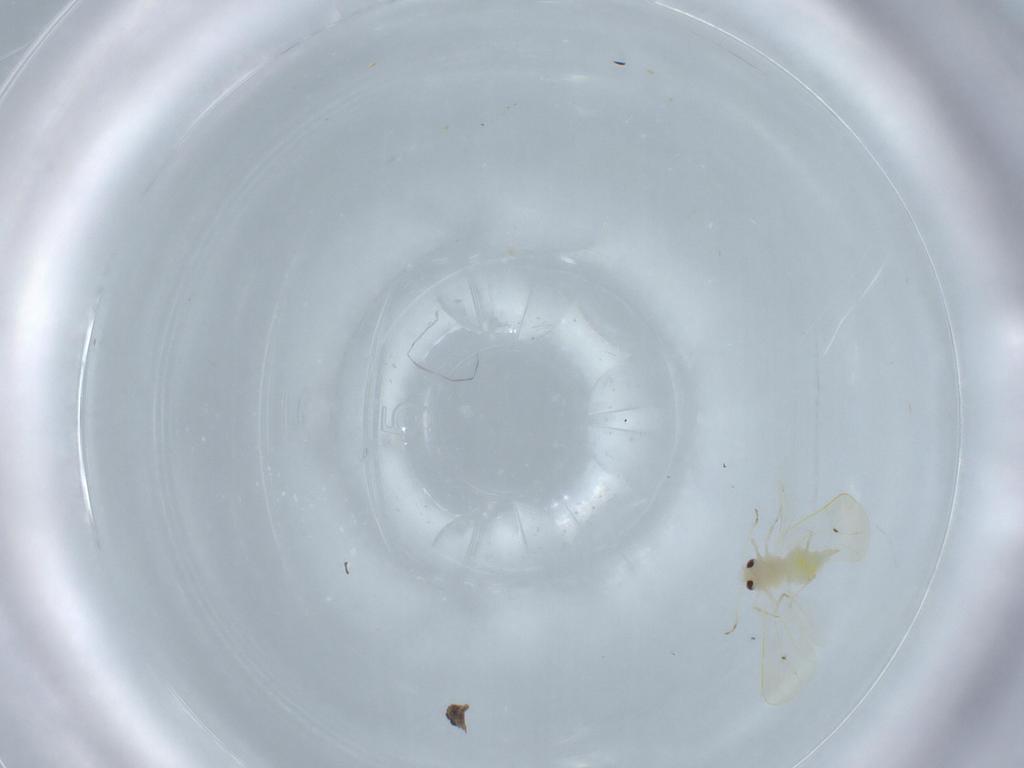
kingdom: Animalia
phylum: Arthropoda
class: Insecta
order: Hemiptera
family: Aleyrodidae
